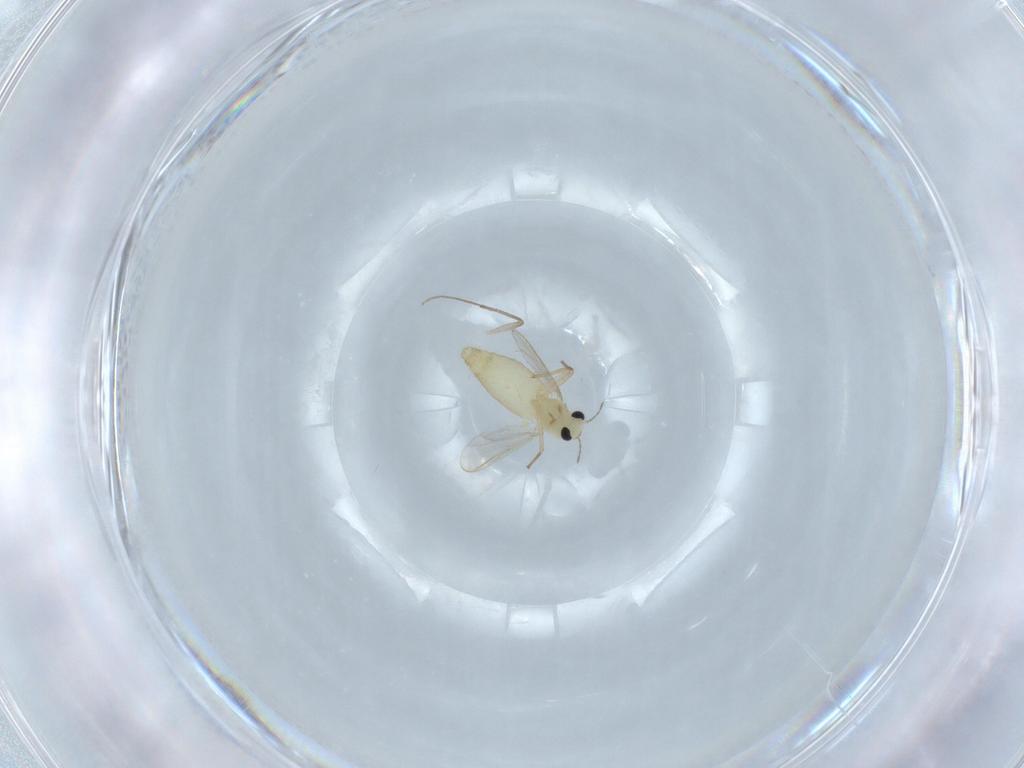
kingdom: Animalia
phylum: Arthropoda
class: Insecta
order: Diptera
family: Chironomidae
